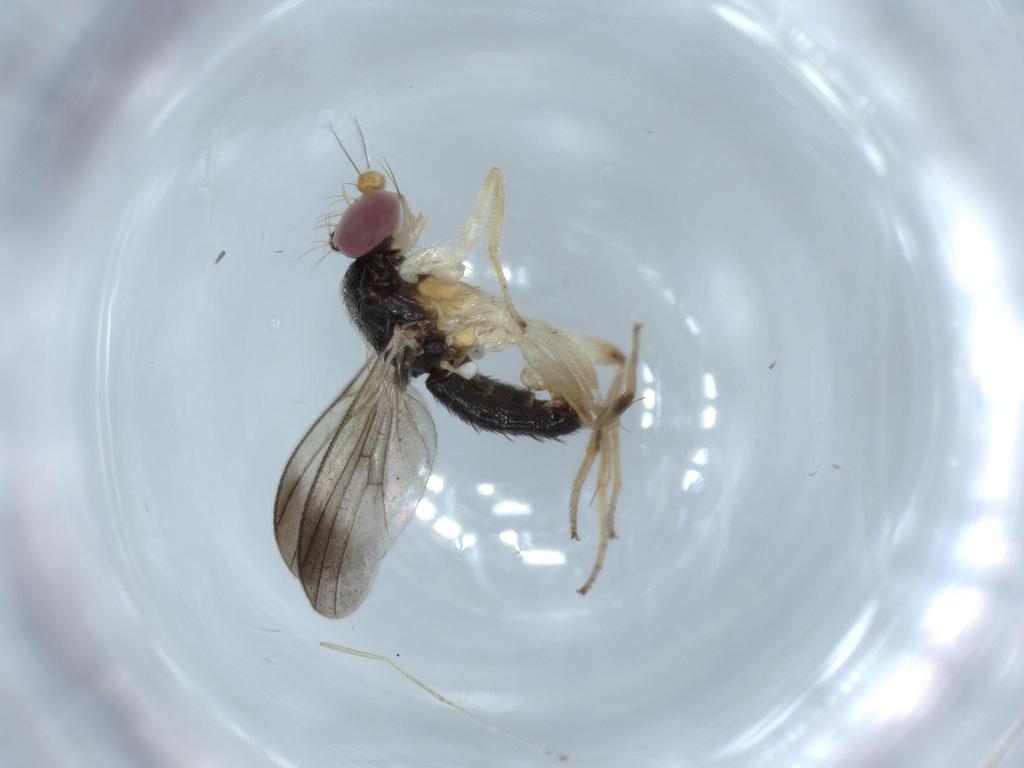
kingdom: Animalia
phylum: Arthropoda
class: Insecta
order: Diptera
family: Clusiidae
